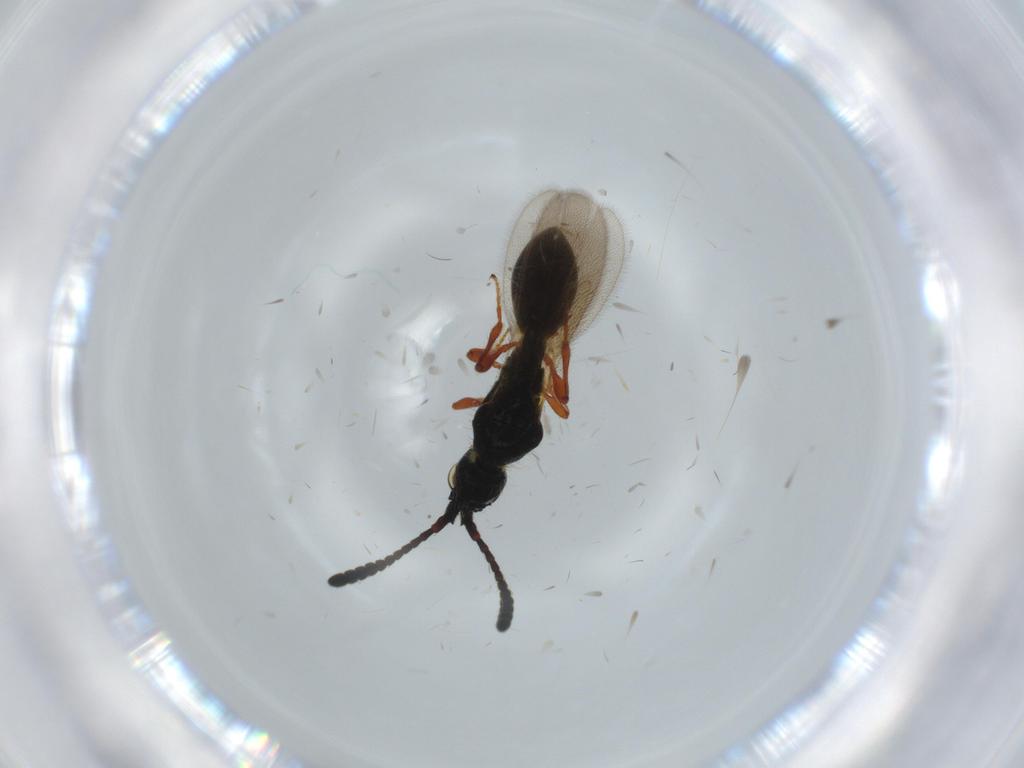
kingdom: Animalia
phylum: Arthropoda
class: Insecta
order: Hymenoptera
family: Diapriidae
